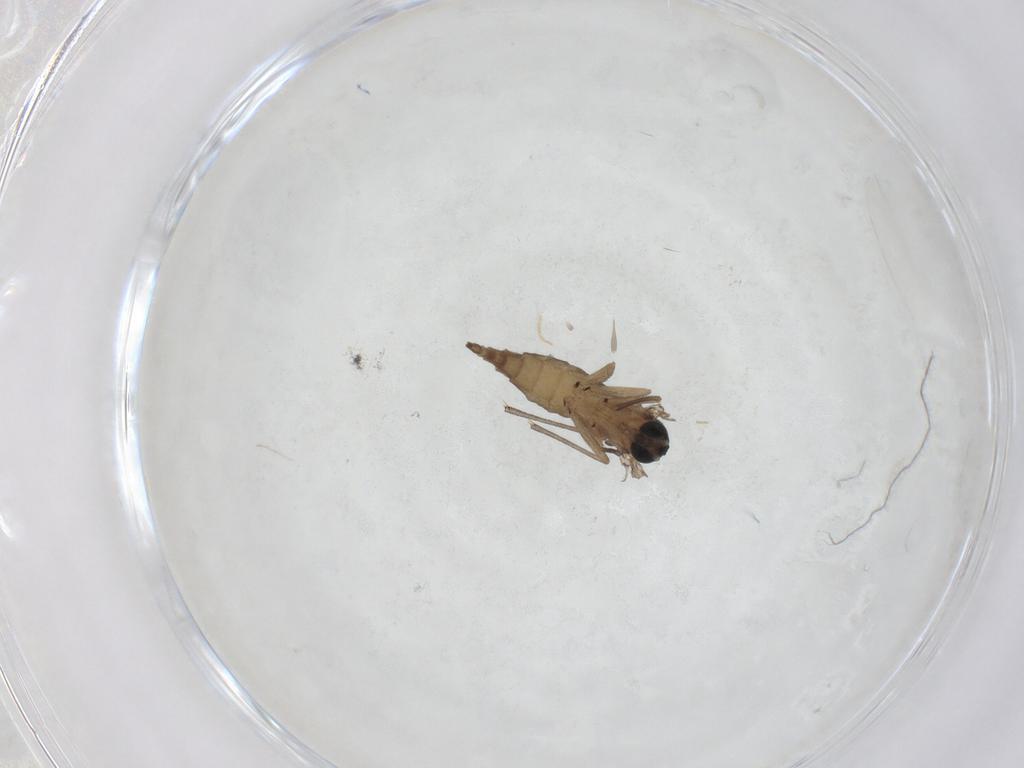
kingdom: Animalia
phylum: Arthropoda
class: Insecta
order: Diptera
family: Sciaridae
